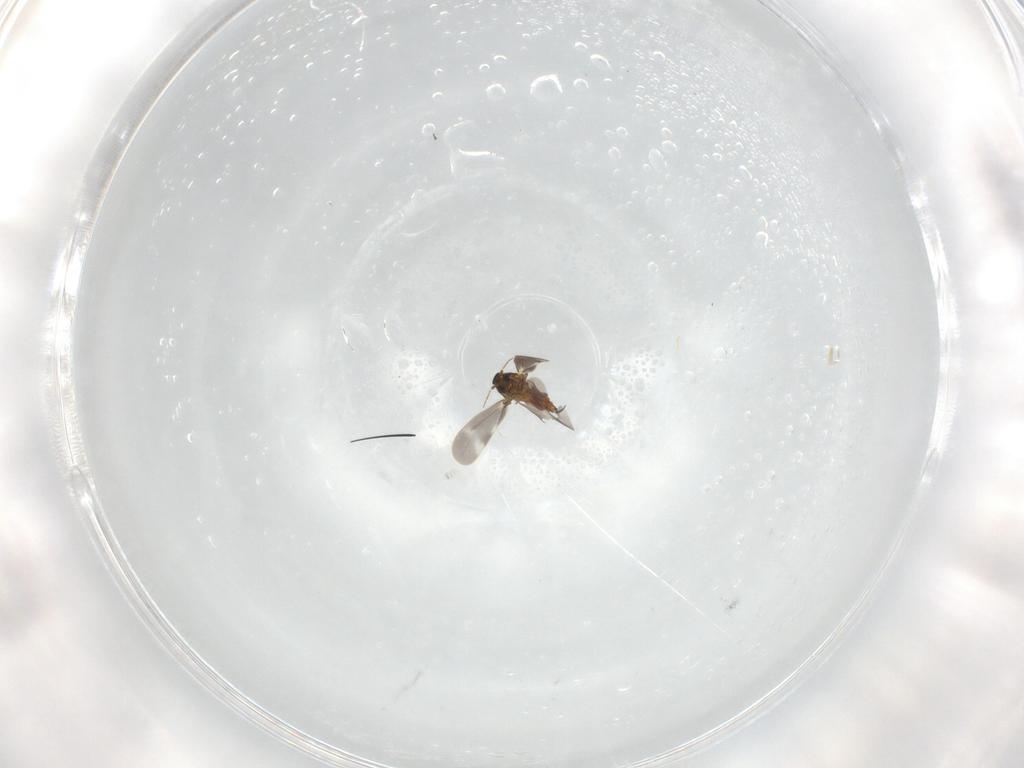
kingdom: Animalia
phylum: Arthropoda
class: Insecta
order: Hemiptera
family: Aleyrodidae
